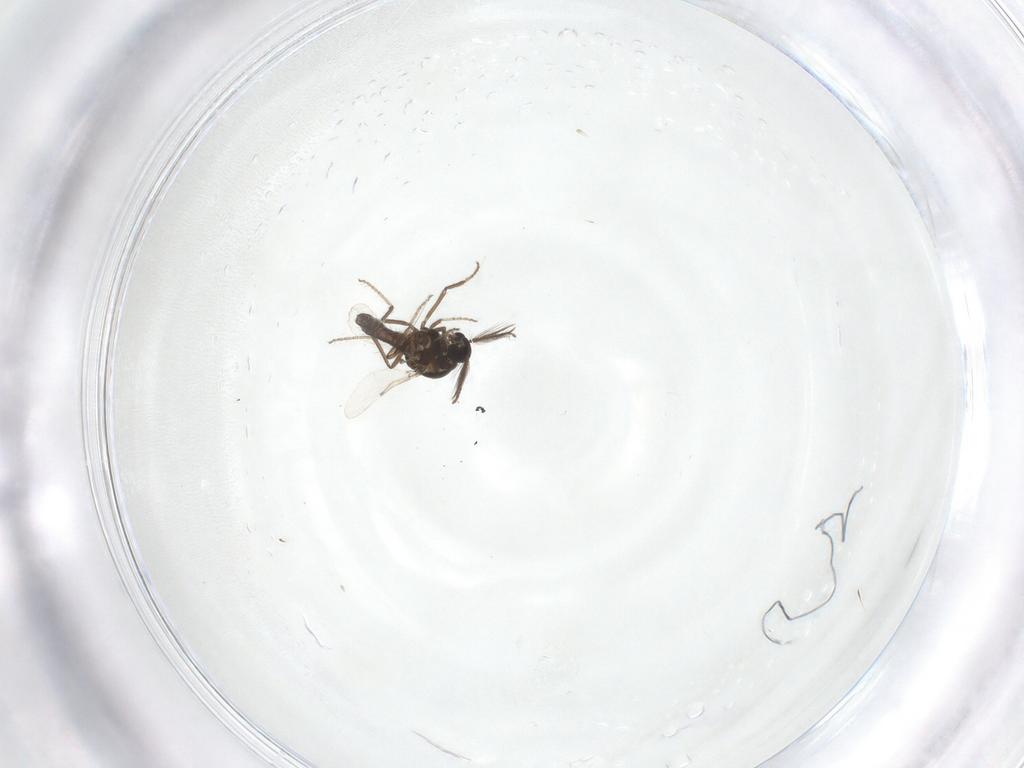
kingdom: Animalia
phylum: Arthropoda
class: Insecta
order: Diptera
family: Ceratopogonidae
